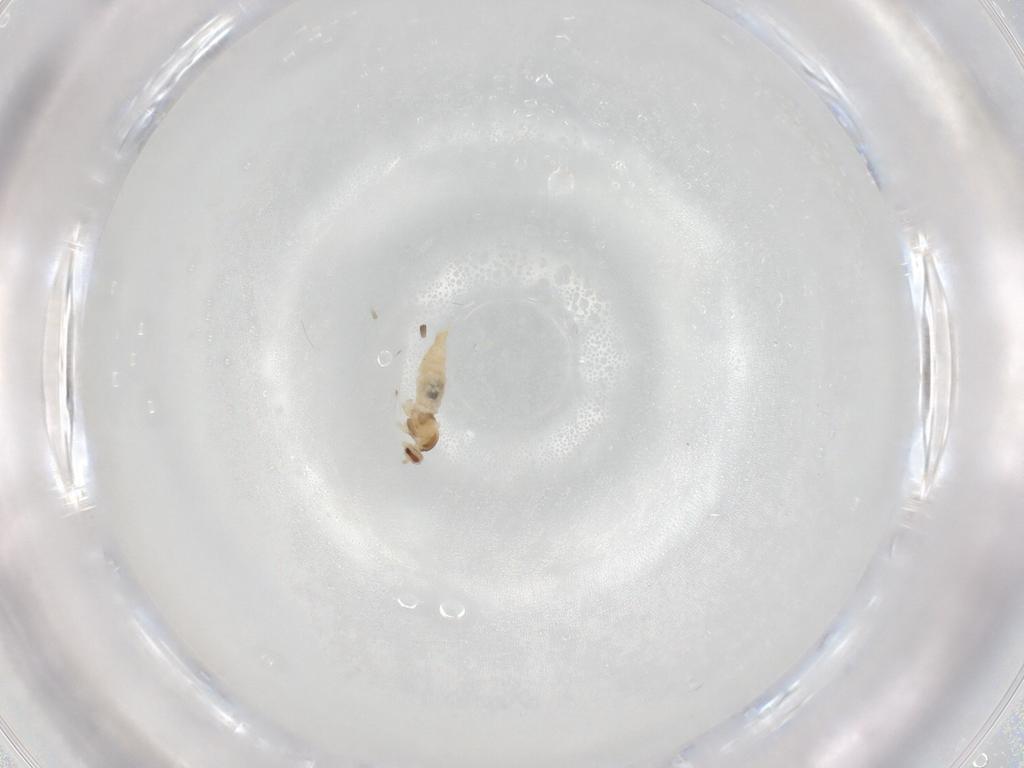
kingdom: Animalia
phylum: Arthropoda
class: Insecta
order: Diptera
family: Cecidomyiidae
